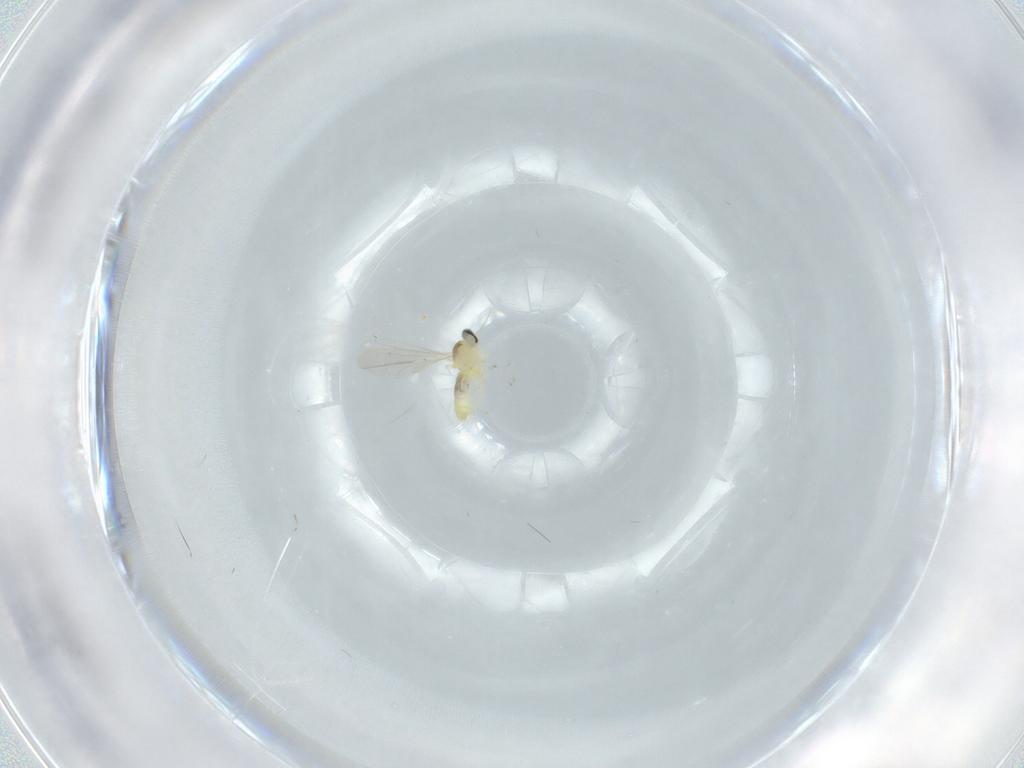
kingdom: Animalia
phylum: Arthropoda
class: Insecta
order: Diptera
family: Cecidomyiidae
